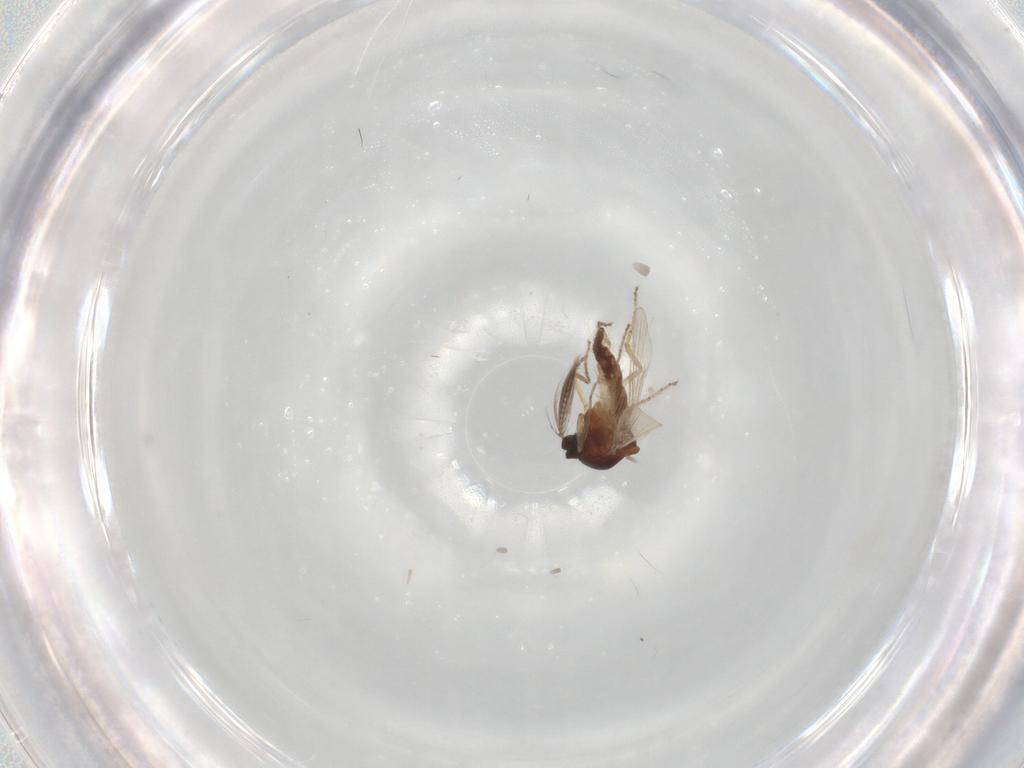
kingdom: Animalia
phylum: Arthropoda
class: Insecta
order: Diptera
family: Ceratopogonidae
